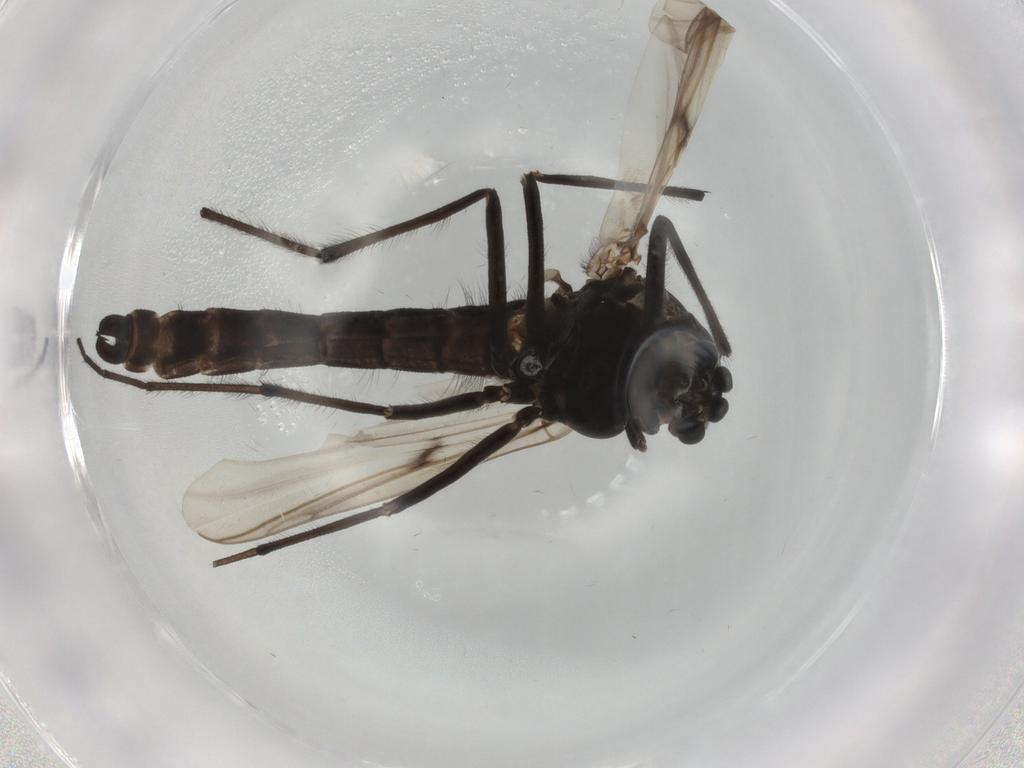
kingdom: Animalia
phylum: Arthropoda
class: Insecta
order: Diptera
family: Chironomidae
